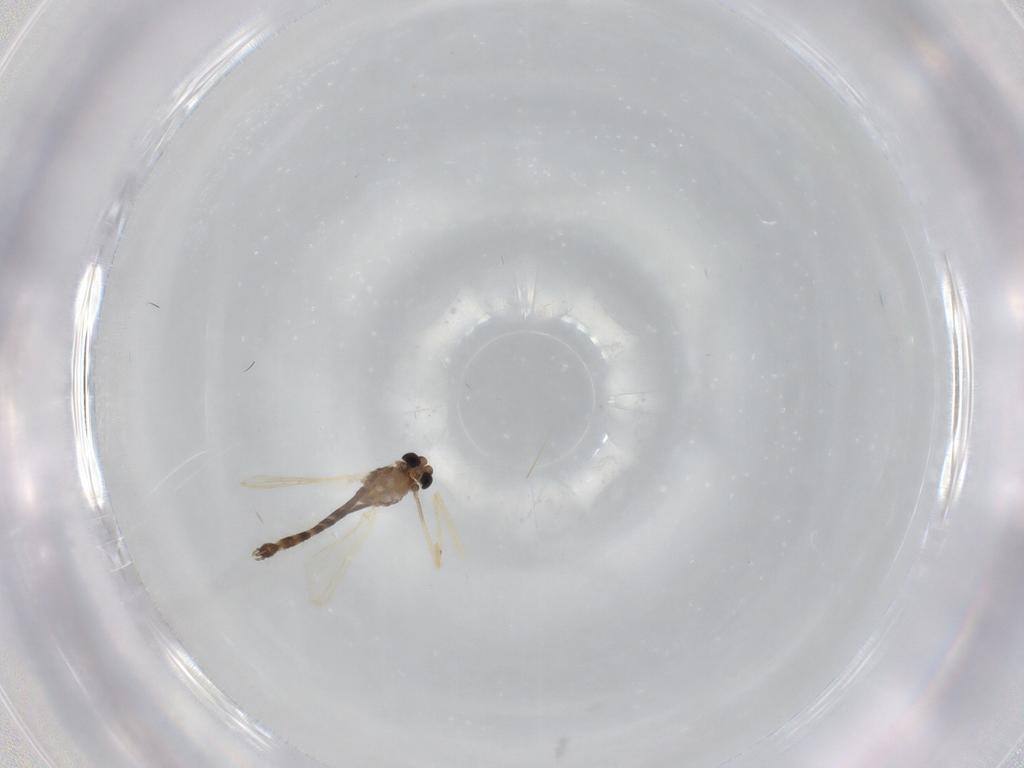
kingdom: Animalia
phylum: Arthropoda
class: Insecta
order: Diptera
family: Chironomidae
